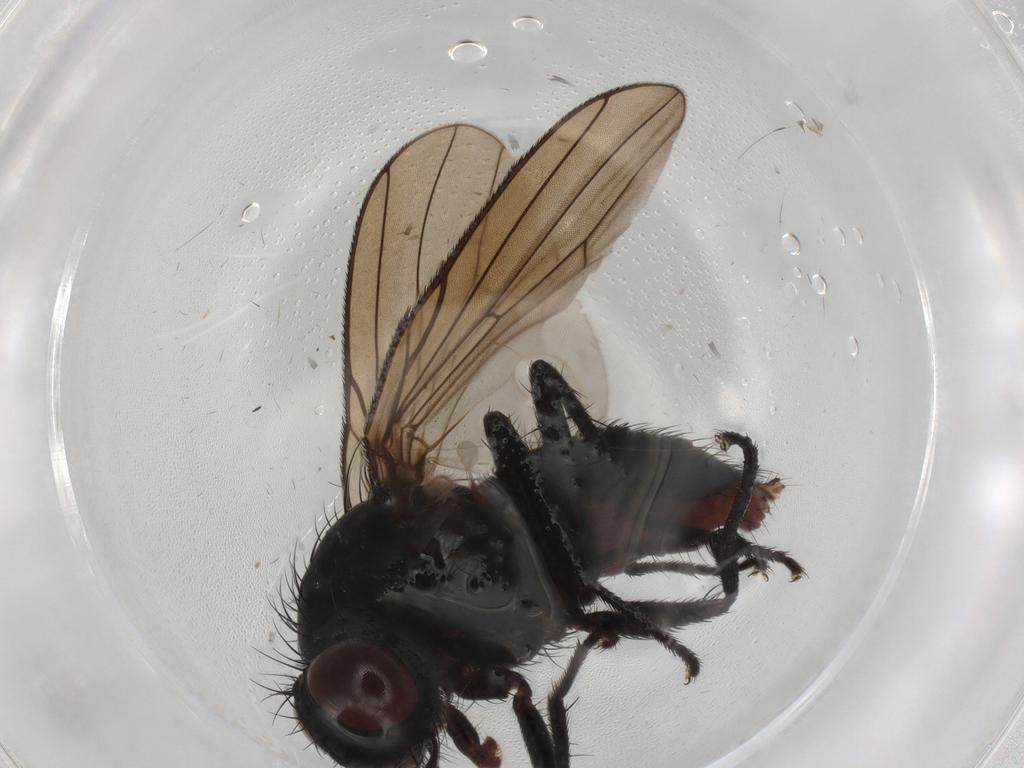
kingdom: Animalia
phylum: Arthropoda
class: Insecta
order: Diptera
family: Anthomyiidae
